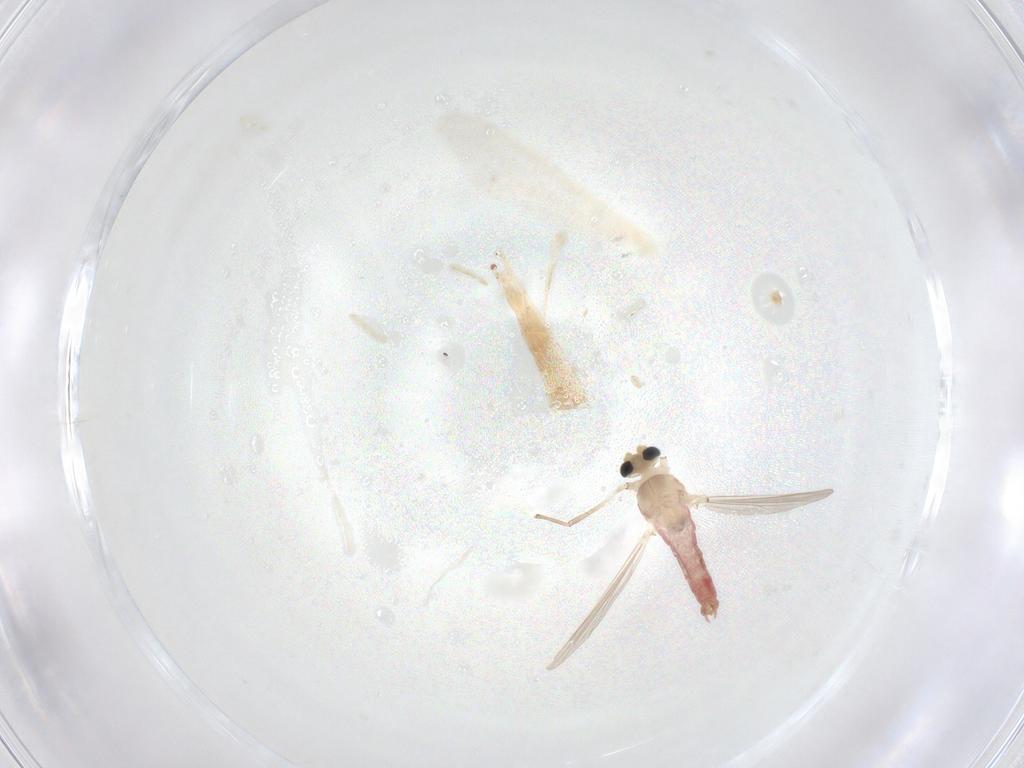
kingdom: Animalia
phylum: Arthropoda
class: Insecta
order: Diptera
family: Chironomidae
